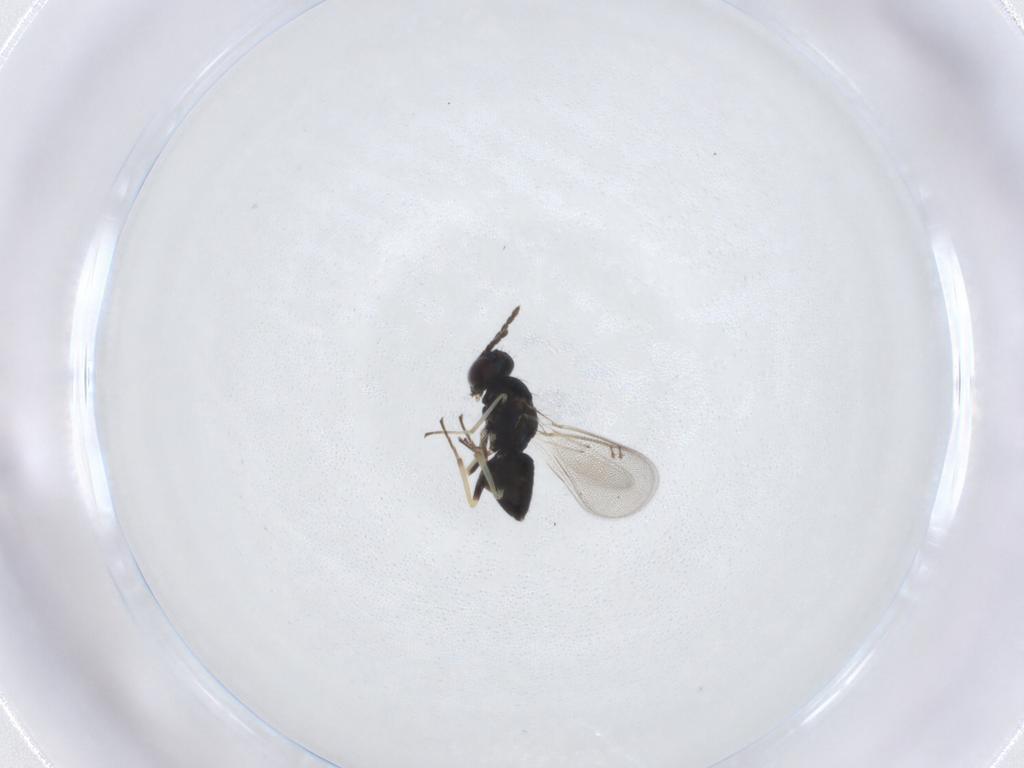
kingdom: Animalia
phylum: Arthropoda
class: Insecta
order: Hymenoptera
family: Eulophidae
